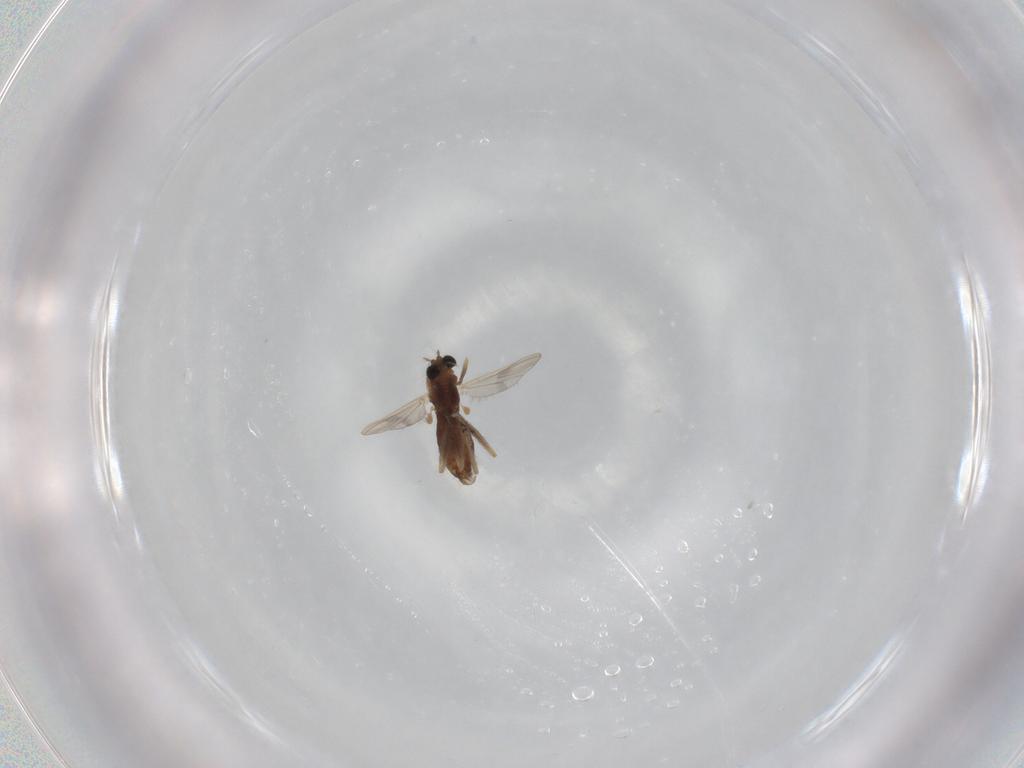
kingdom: Animalia
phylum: Arthropoda
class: Insecta
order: Diptera
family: Chironomidae
